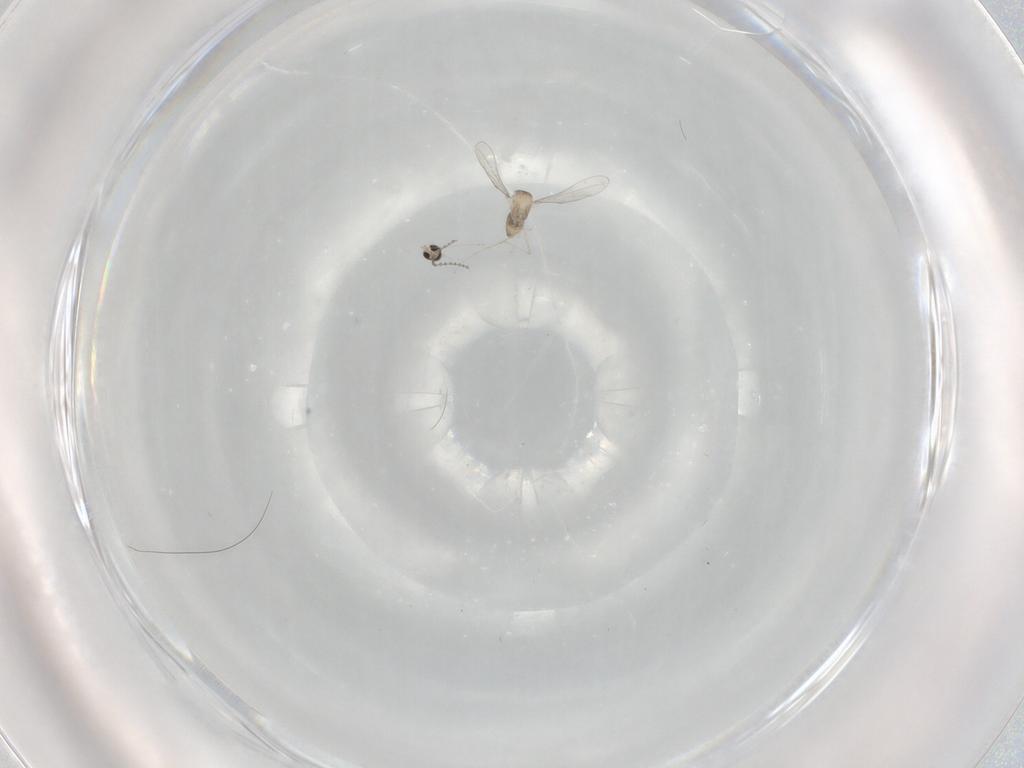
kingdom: Animalia
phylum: Arthropoda
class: Insecta
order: Diptera
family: Cecidomyiidae
